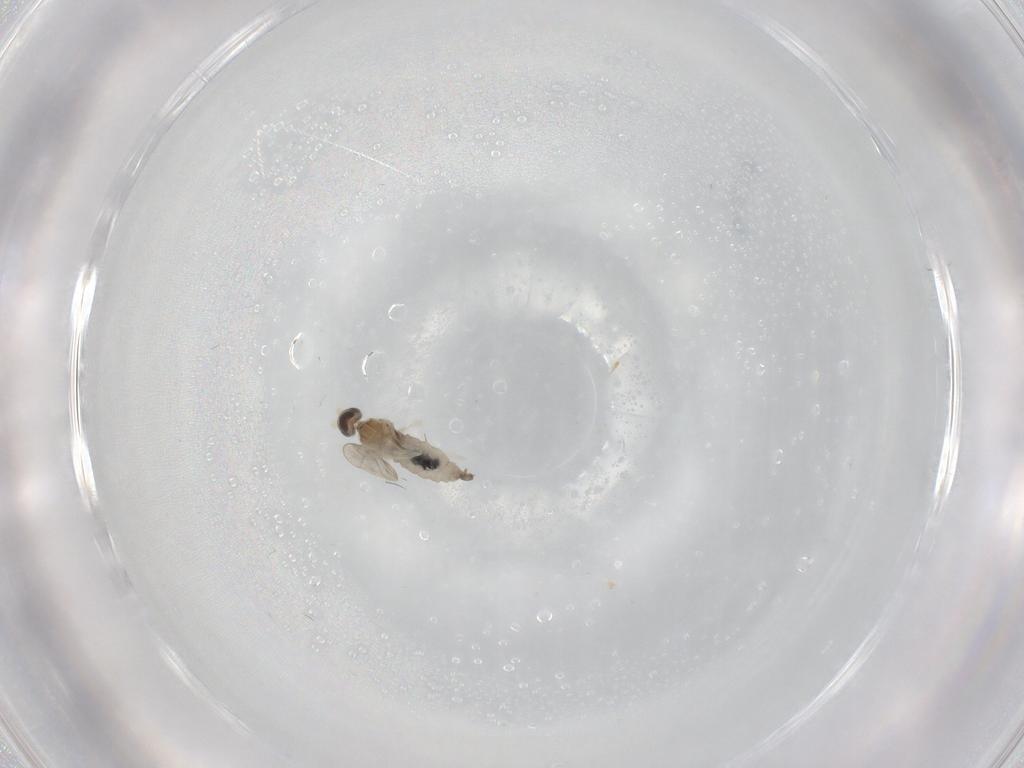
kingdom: Animalia
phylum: Arthropoda
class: Insecta
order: Diptera
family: Cecidomyiidae
